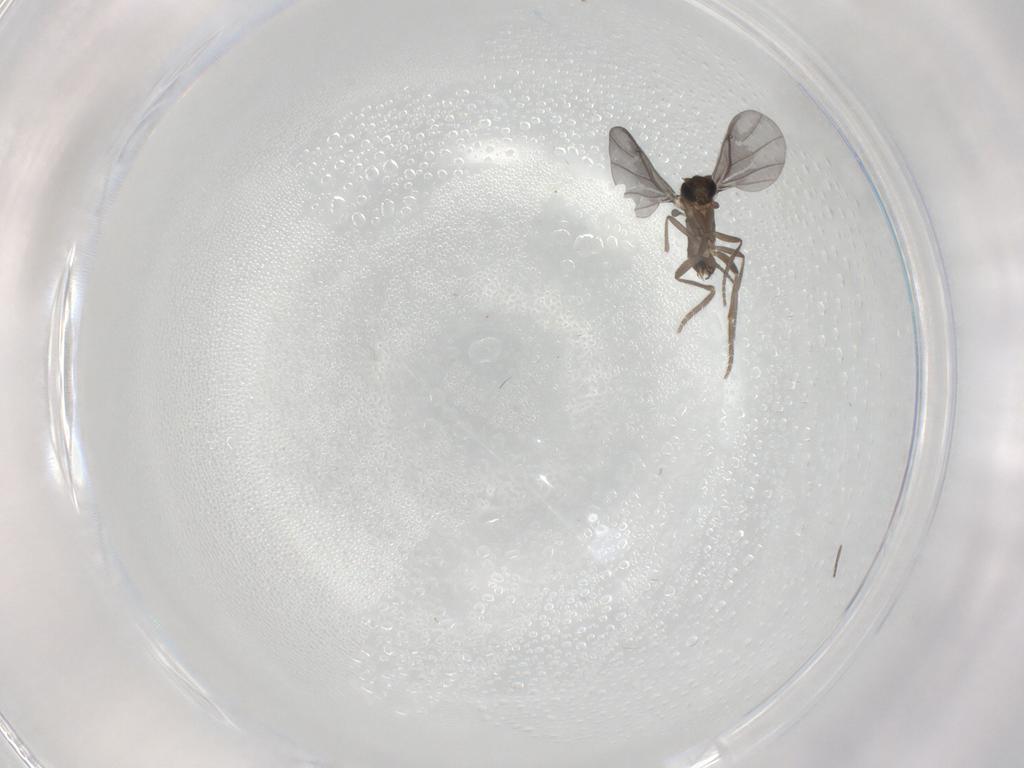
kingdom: Animalia
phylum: Arthropoda
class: Insecta
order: Diptera
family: Phoridae
